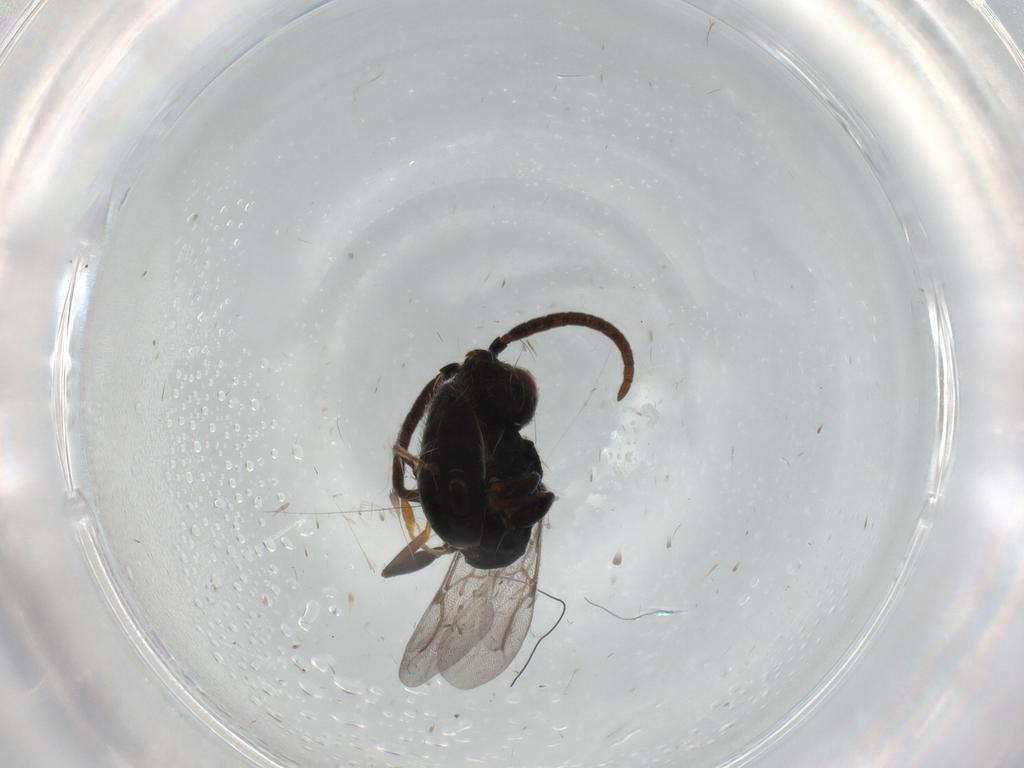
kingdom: Animalia
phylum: Arthropoda
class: Insecta
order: Hymenoptera
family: Bethylidae
